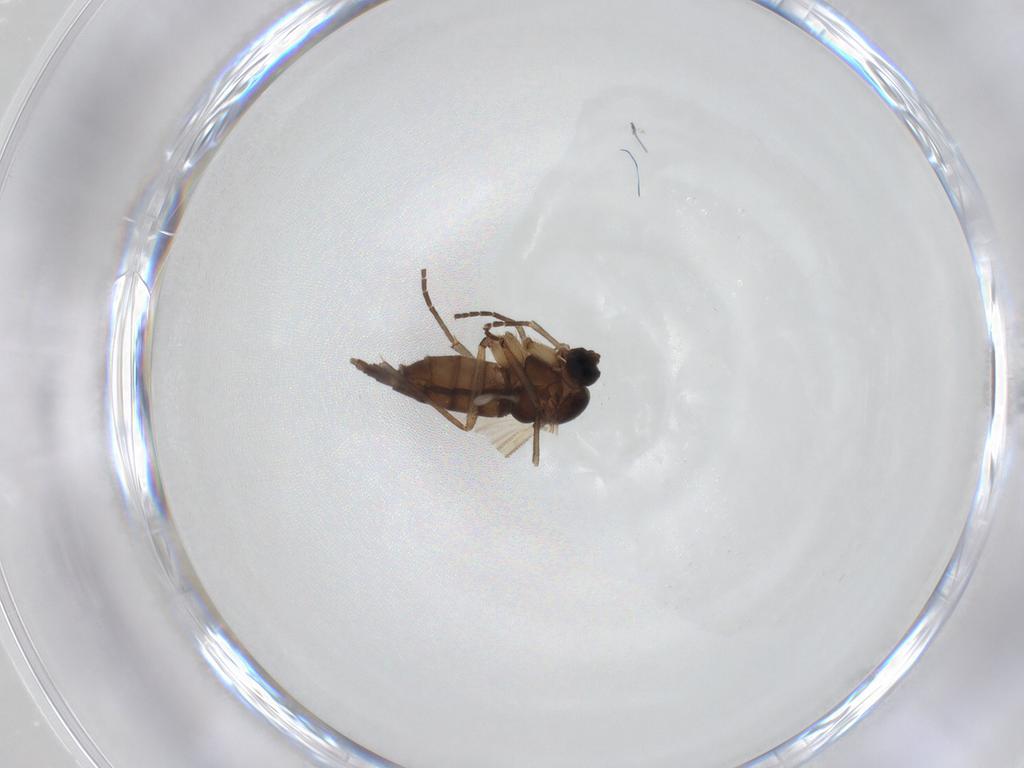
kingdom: Animalia
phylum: Arthropoda
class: Insecta
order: Diptera
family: Sciaridae
